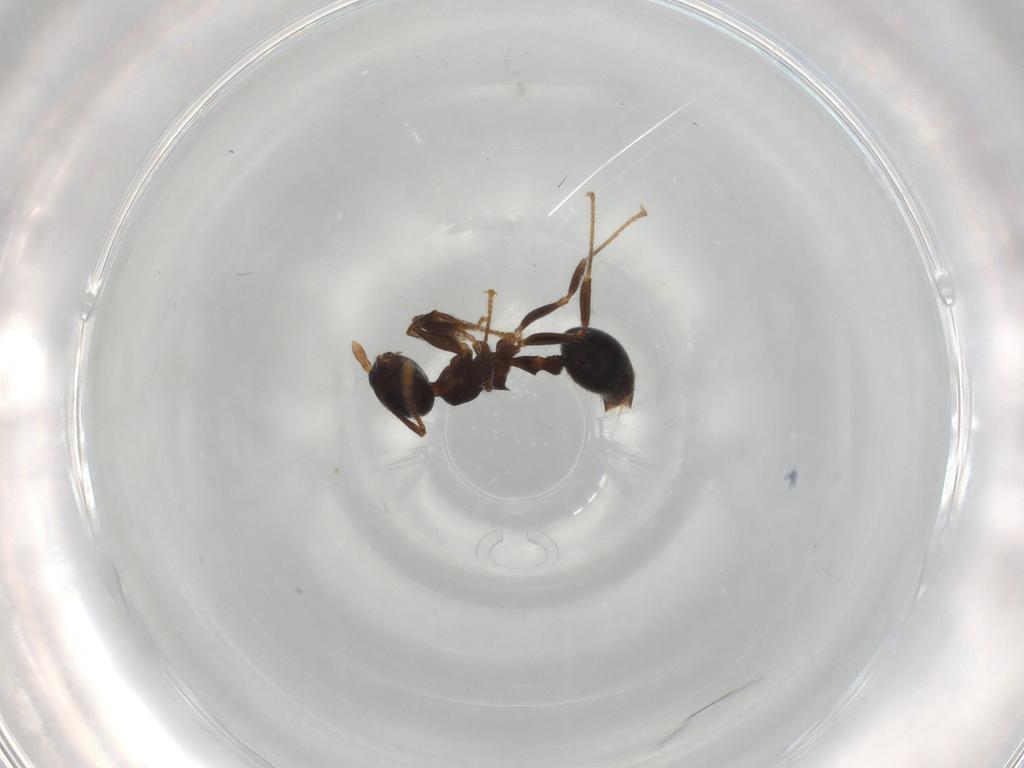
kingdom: Animalia
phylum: Arthropoda
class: Insecta
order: Hymenoptera
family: Formicidae
